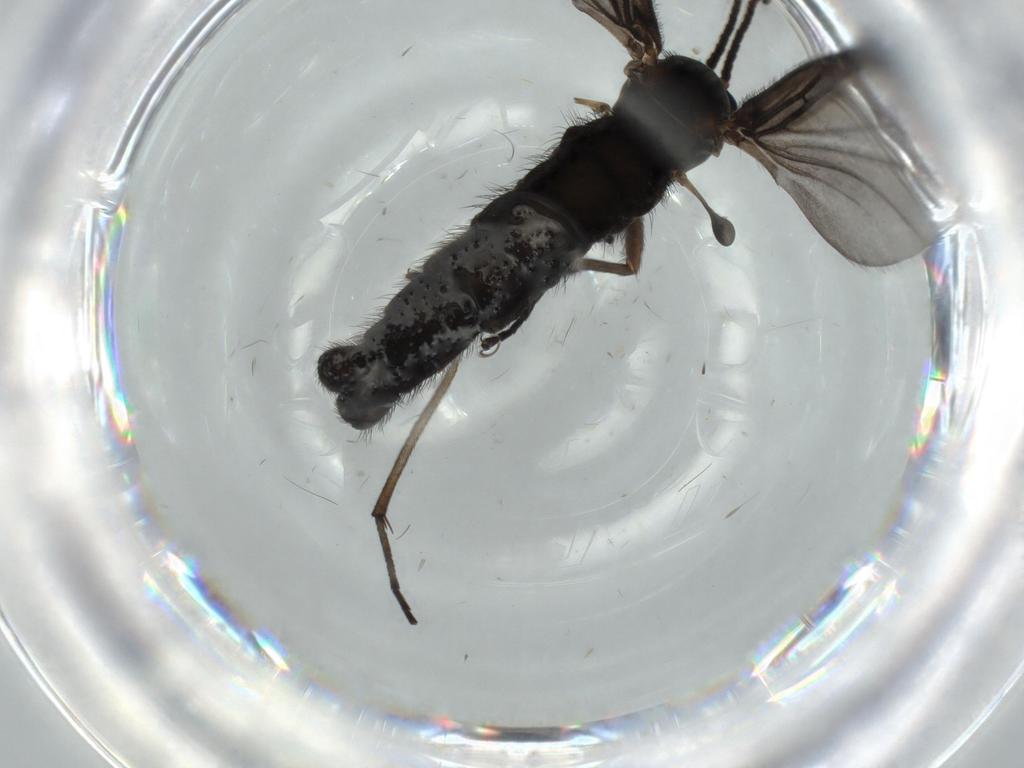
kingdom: Animalia
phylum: Arthropoda
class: Insecta
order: Diptera
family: Sciaridae
